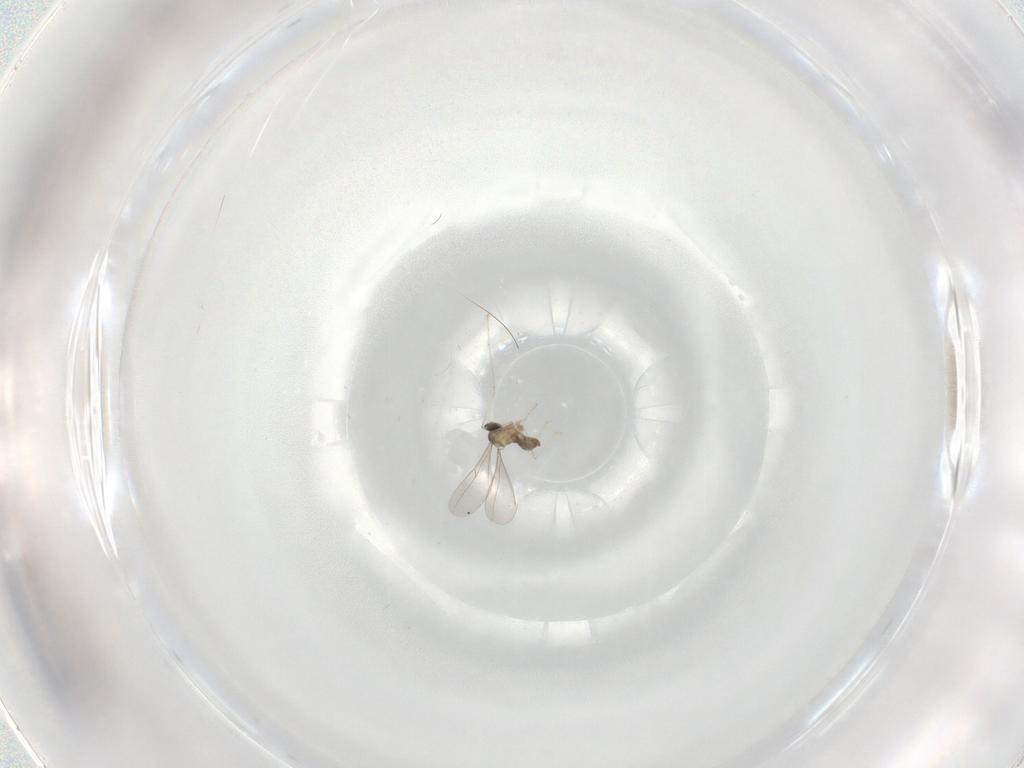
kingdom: Animalia
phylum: Arthropoda
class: Insecta
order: Diptera
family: Cecidomyiidae
